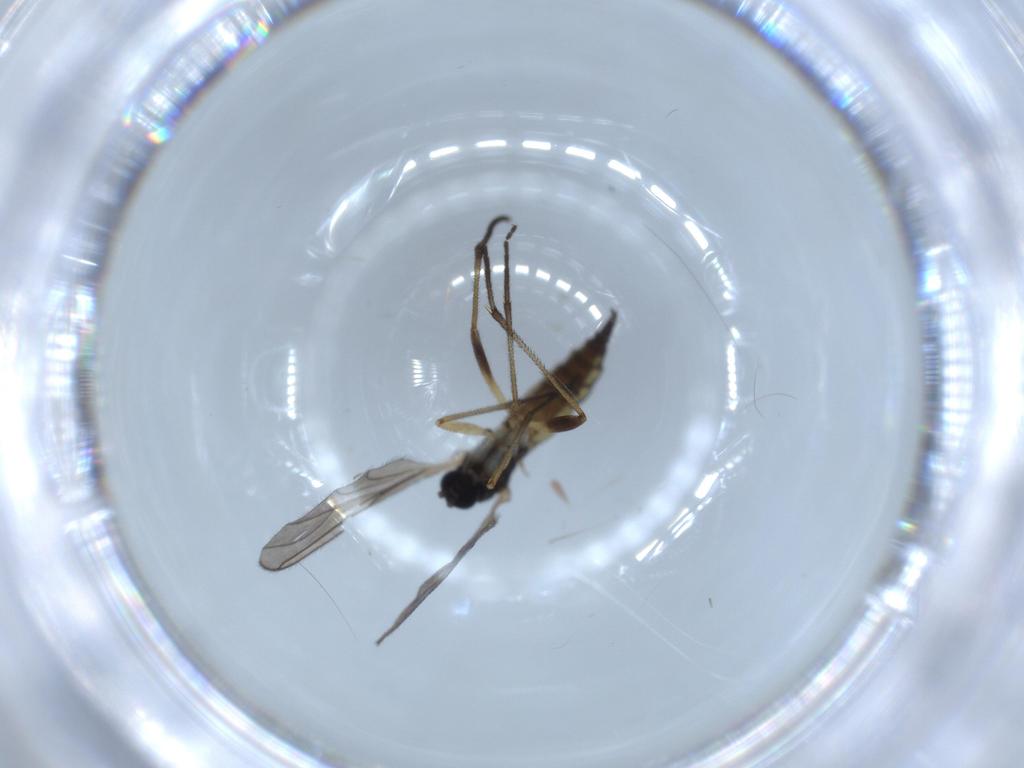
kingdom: Animalia
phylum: Arthropoda
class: Insecta
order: Diptera
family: Sciaridae
